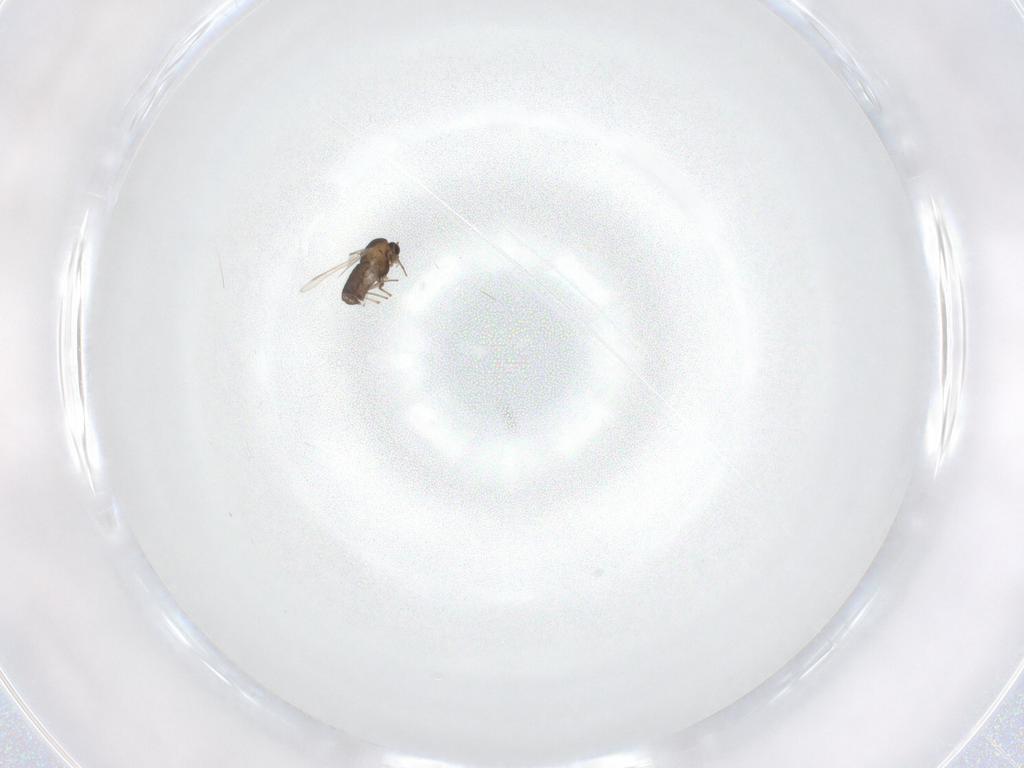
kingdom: Animalia
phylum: Arthropoda
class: Insecta
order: Diptera
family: Chironomidae
